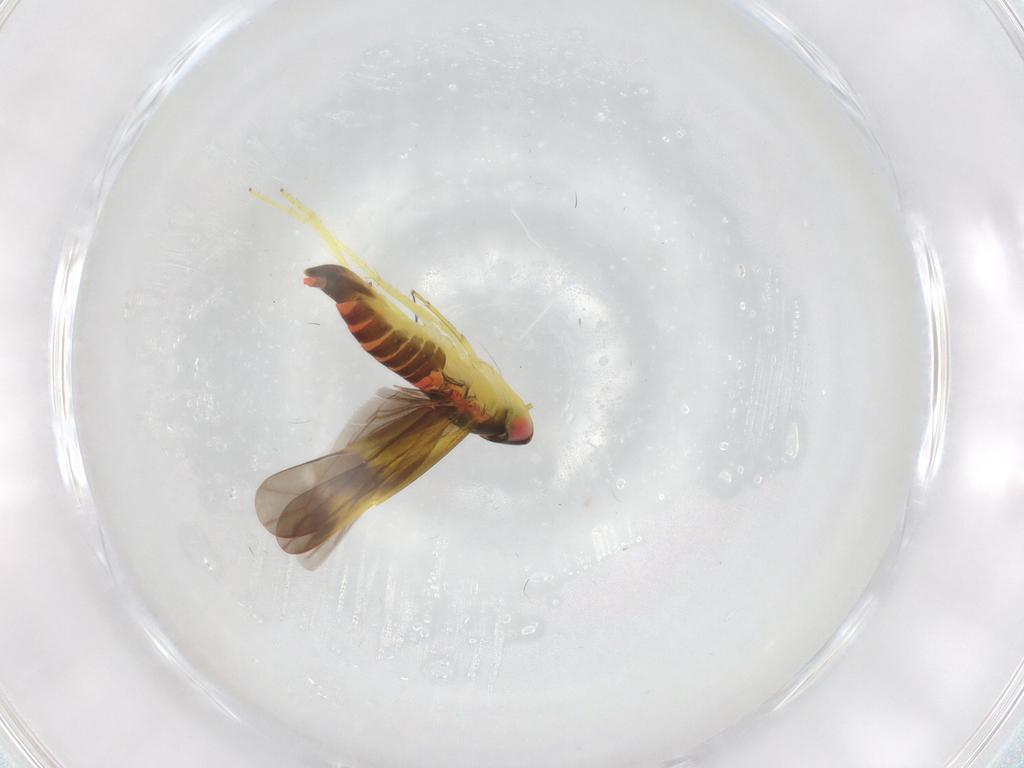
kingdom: Animalia
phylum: Arthropoda
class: Insecta
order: Hemiptera
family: Cicadellidae
